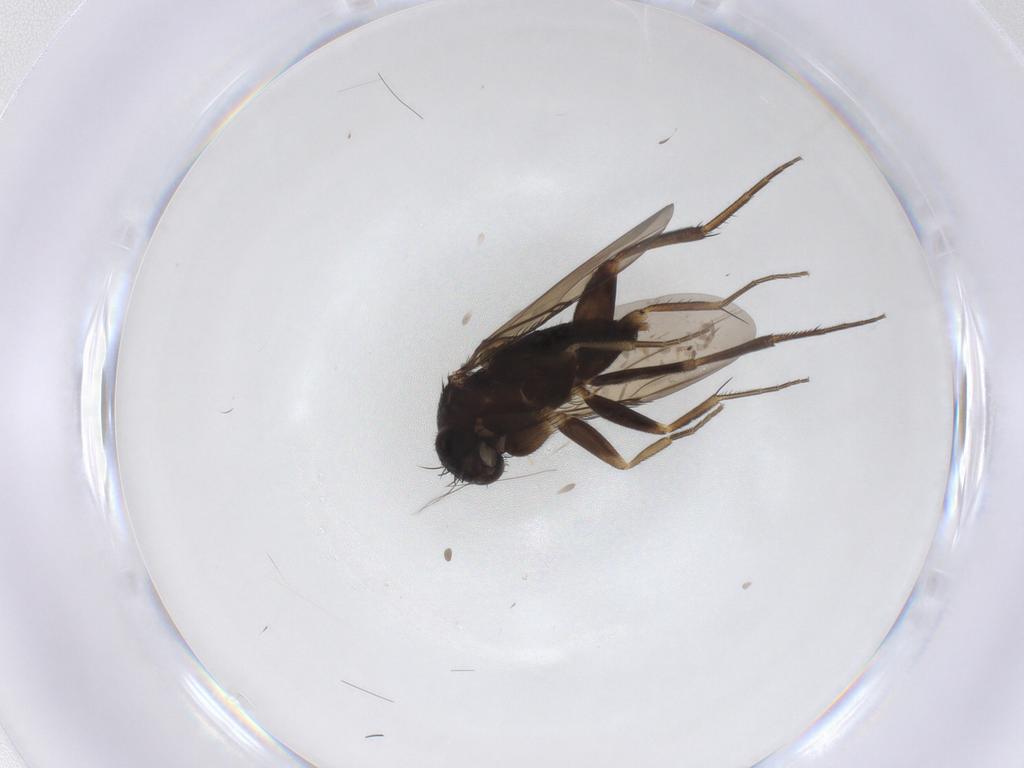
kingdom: Animalia
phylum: Arthropoda
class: Insecta
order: Diptera
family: Phoridae
